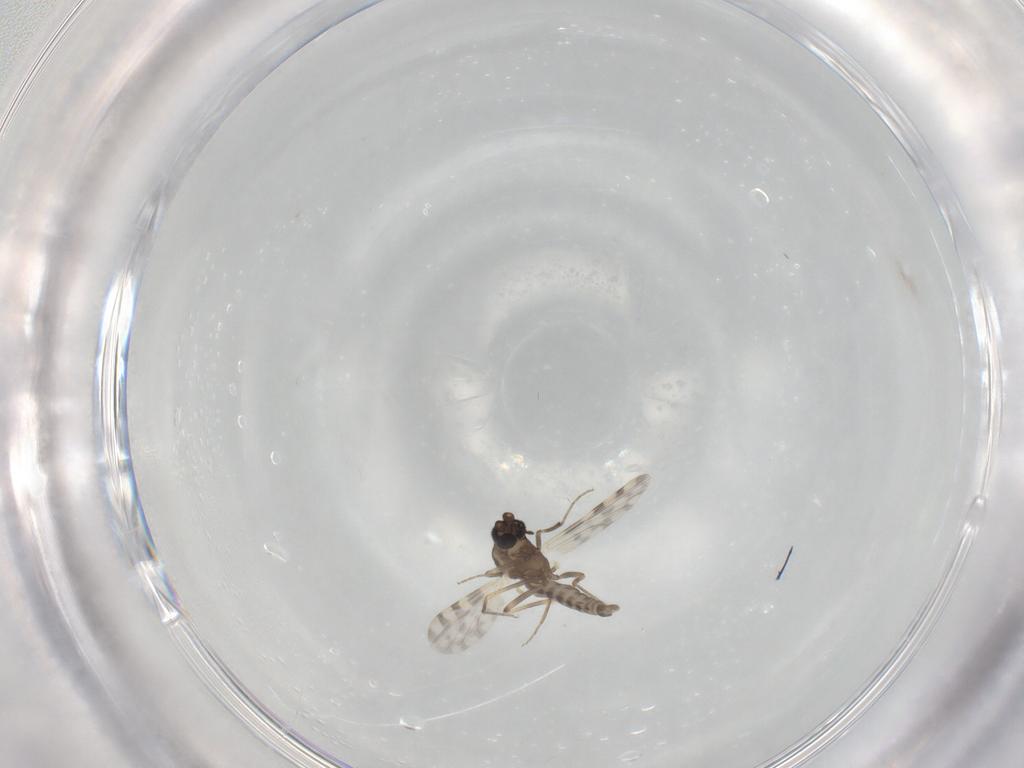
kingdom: Animalia
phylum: Arthropoda
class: Insecta
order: Diptera
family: Ceratopogonidae
